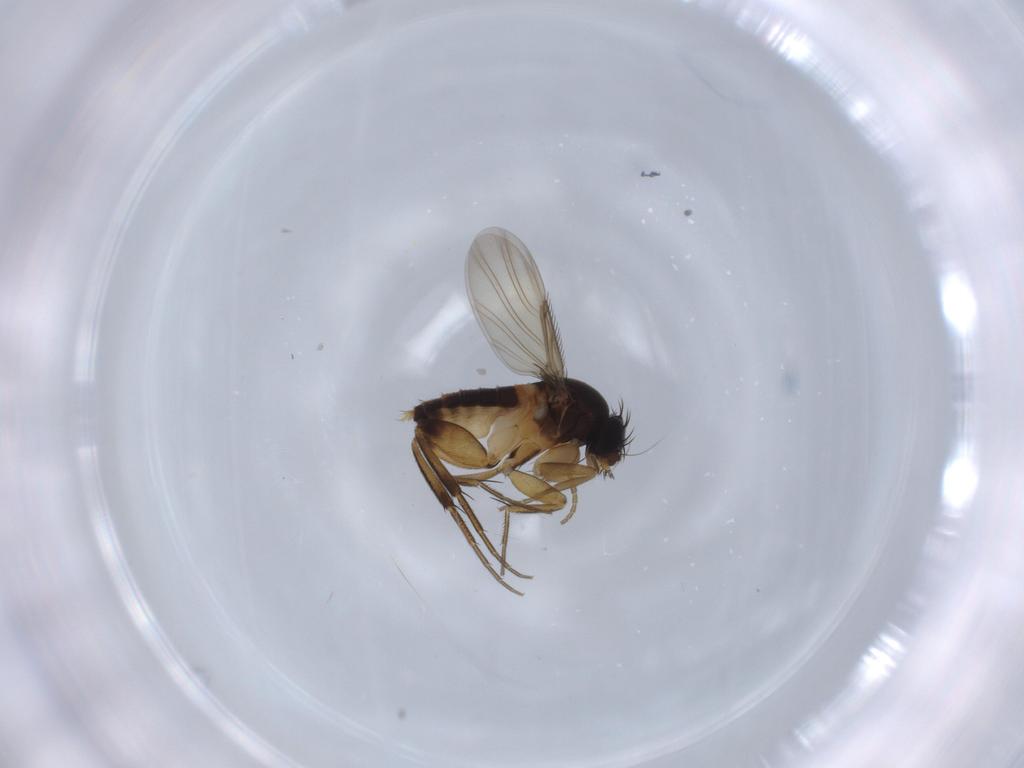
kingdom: Animalia
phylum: Arthropoda
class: Insecta
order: Diptera
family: Phoridae
